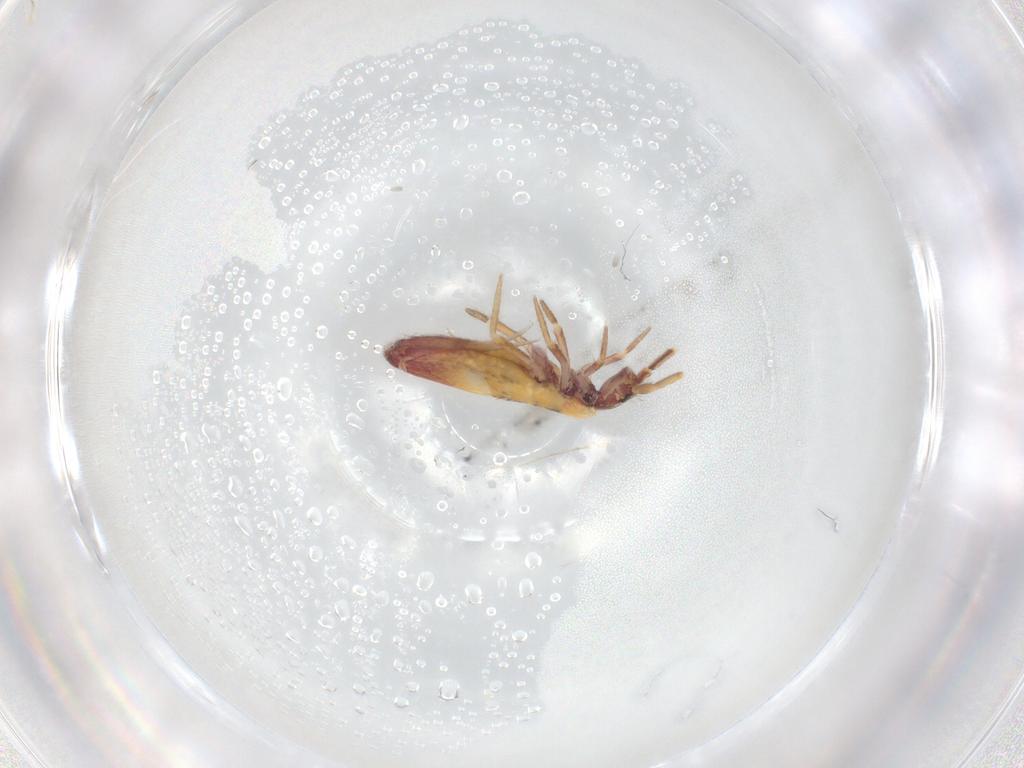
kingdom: Animalia
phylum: Arthropoda
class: Collembola
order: Entomobryomorpha
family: Entomobryidae
